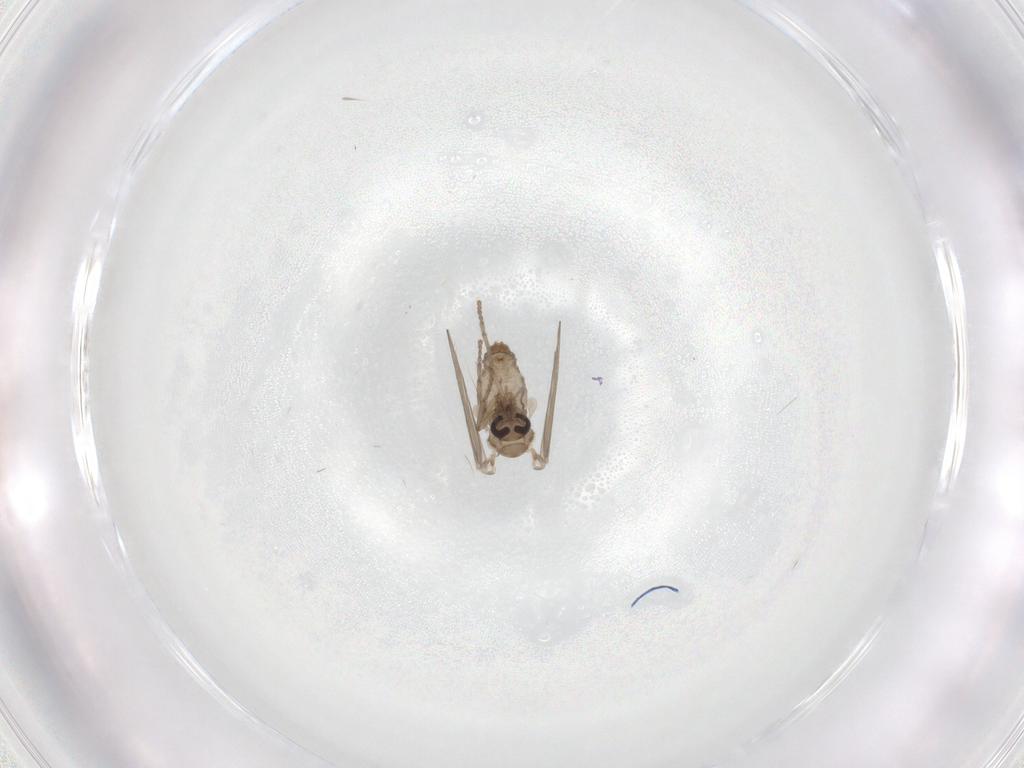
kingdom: Animalia
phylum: Arthropoda
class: Insecta
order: Diptera
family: Psychodidae
